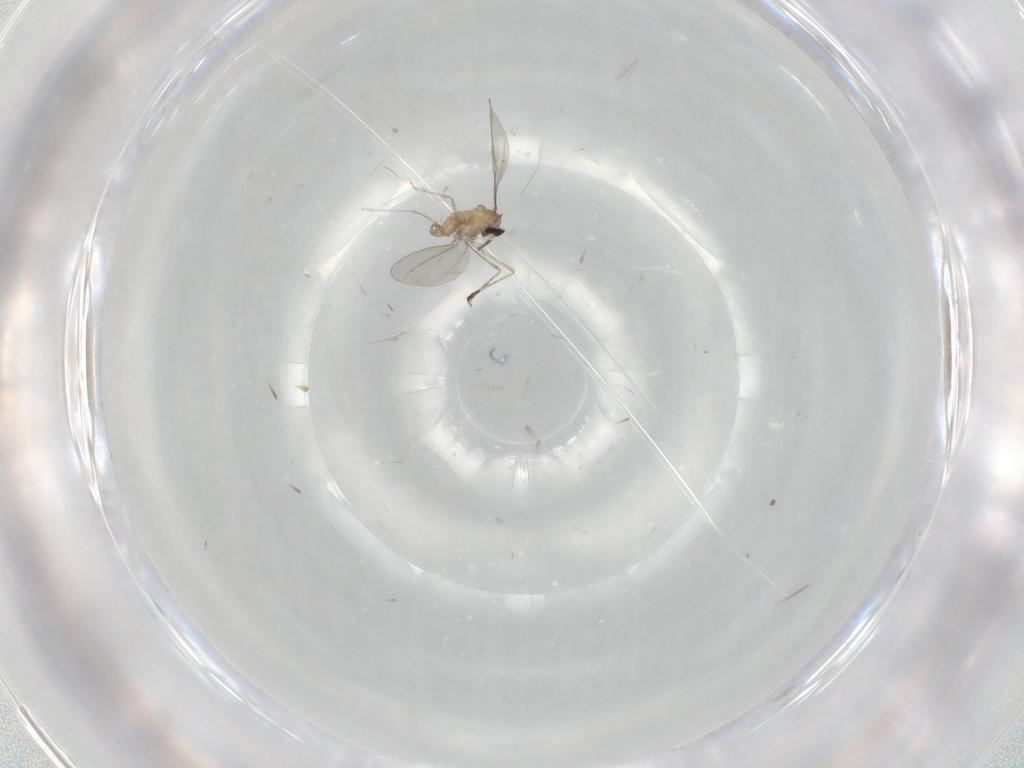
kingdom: Animalia
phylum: Arthropoda
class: Insecta
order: Diptera
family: Cecidomyiidae
